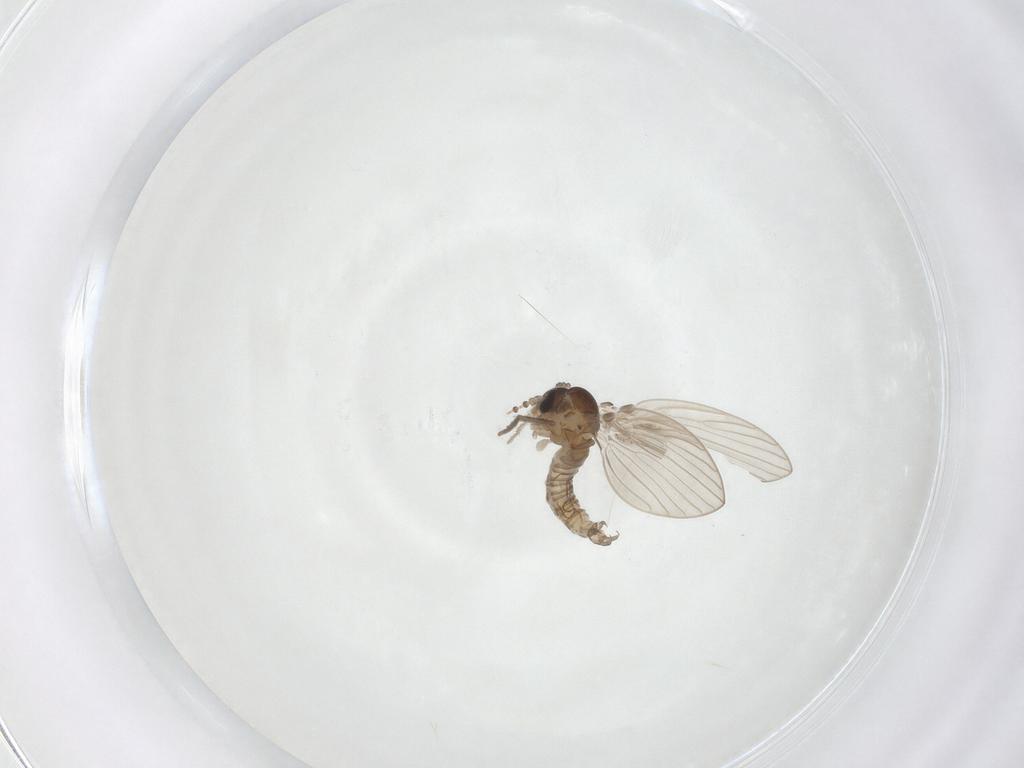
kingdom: Animalia
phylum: Arthropoda
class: Insecta
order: Diptera
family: Psychodidae
